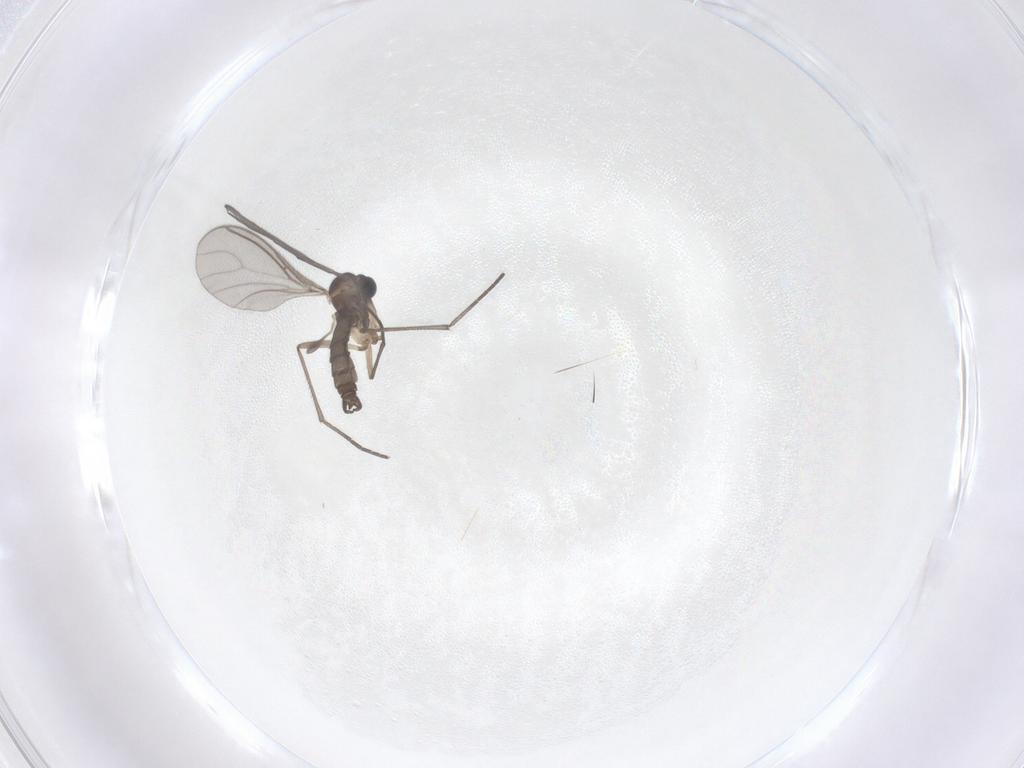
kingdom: Animalia
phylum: Arthropoda
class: Insecta
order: Diptera
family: Sciaridae
